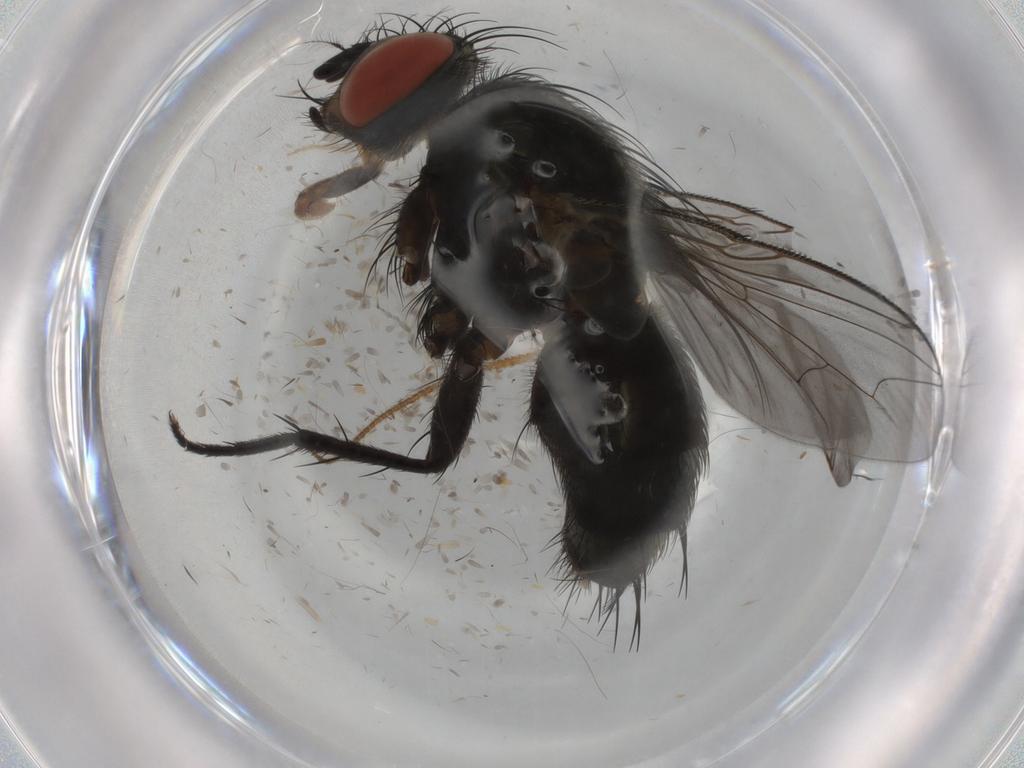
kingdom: Animalia
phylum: Arthropoda
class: Insecta
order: Diptera
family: Sarcophagidae
